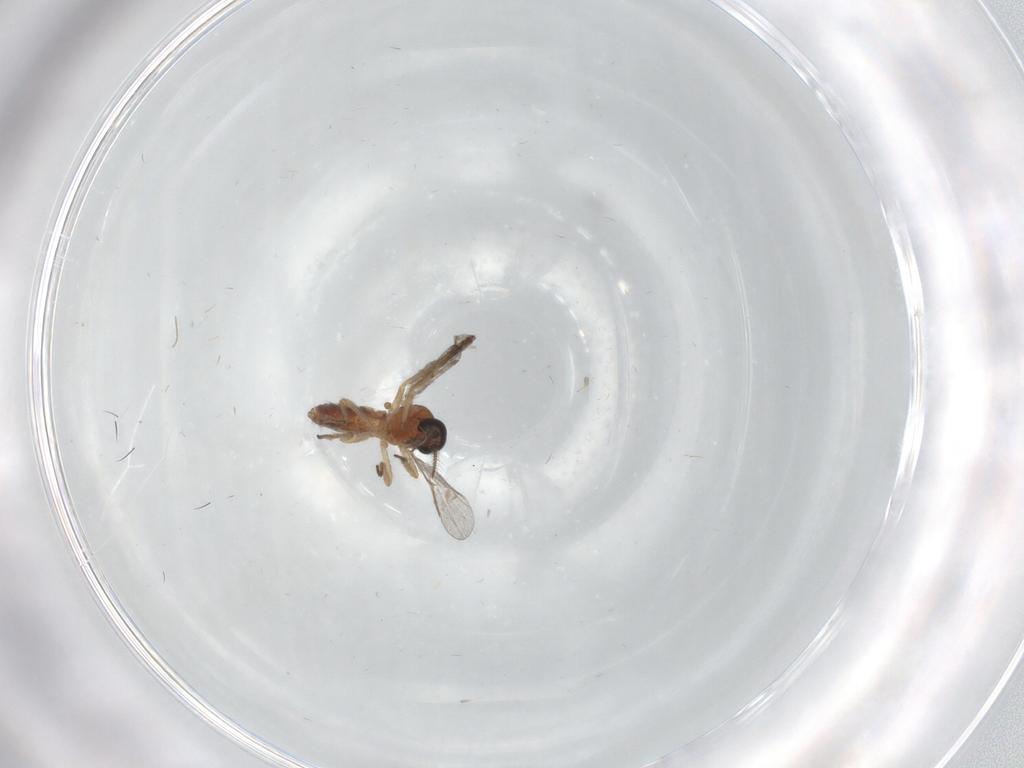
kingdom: Animalia
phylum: Arthropoda
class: Insecta
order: Diptera
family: Ceratopogonidae
